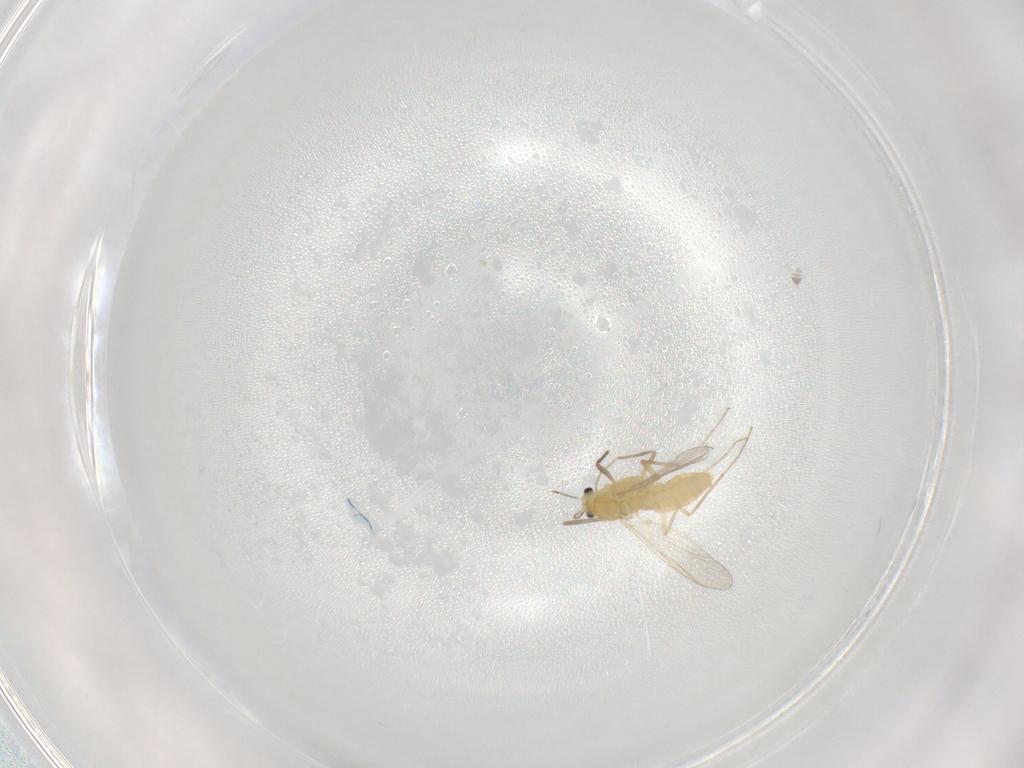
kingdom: Animalia
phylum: Arthropoda
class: Insecta
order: Diptera
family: Chironomidae
